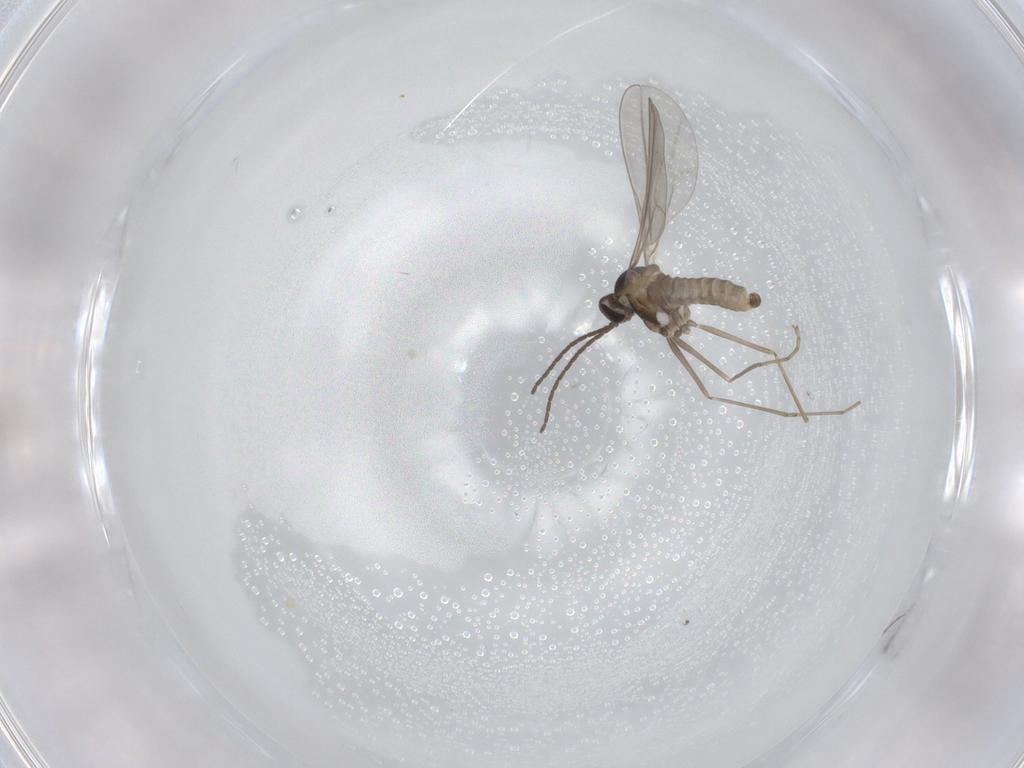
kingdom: Animalia
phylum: Arthropoda
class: Insecta
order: Diptera
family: Cecidomyiidae
